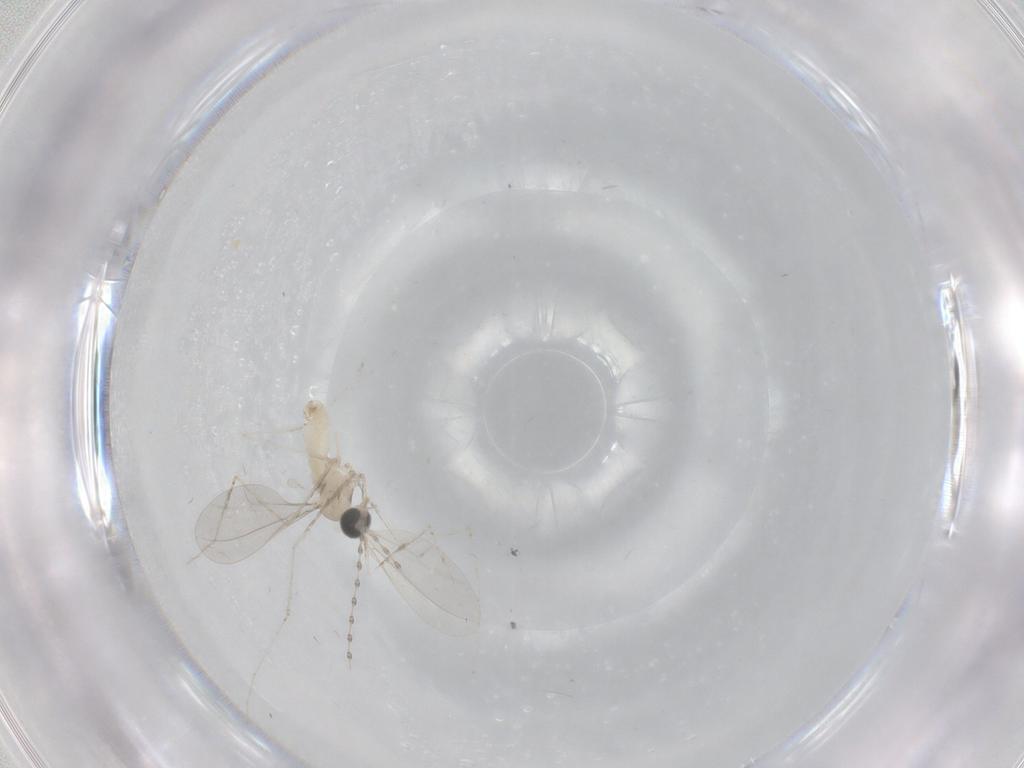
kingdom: Animalia
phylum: Arthropoda
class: Insecta
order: Diptera
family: Cecidomyiidae
